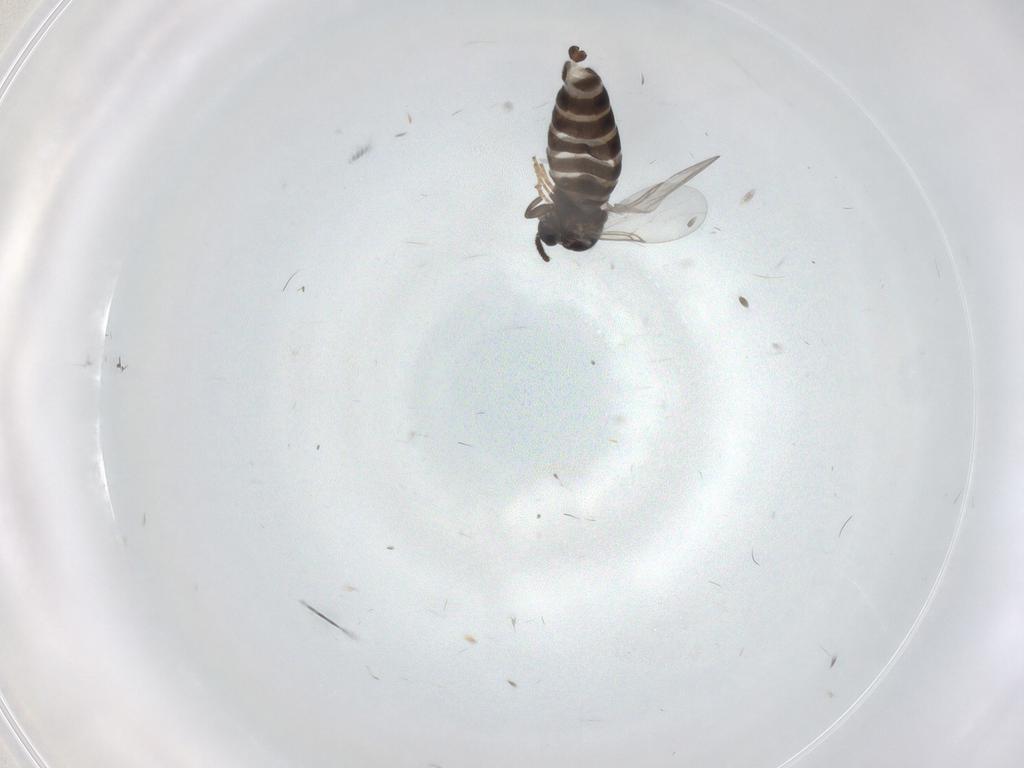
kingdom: Animalia
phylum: Arthropoda
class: Insecta
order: Diptera
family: Scatopsidae
